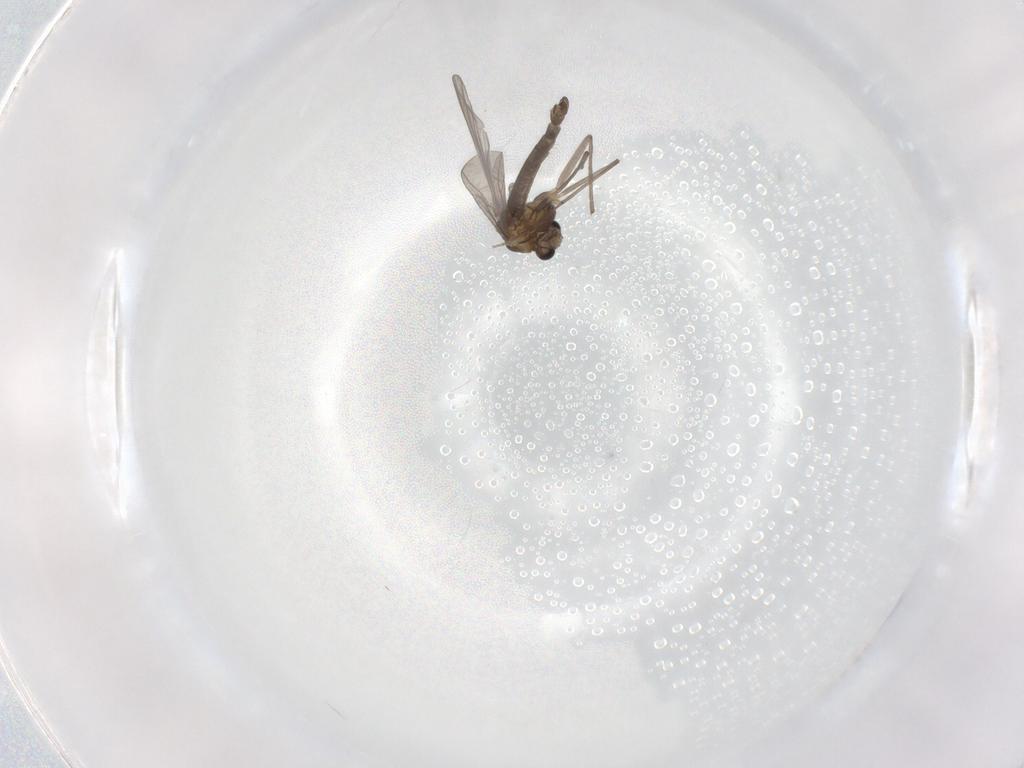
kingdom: Animalia
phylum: Arthropoda
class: Insecta
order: Diptera
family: Chironomidae
